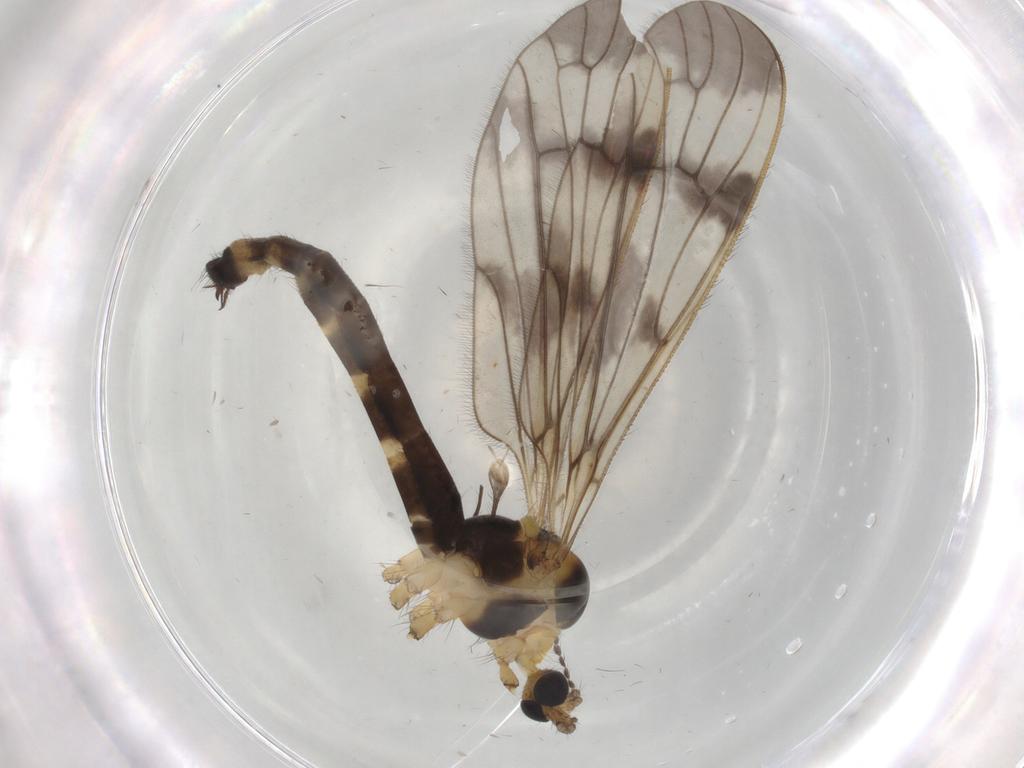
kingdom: Animalia
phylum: Arthropoda
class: Insecta
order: Diptera
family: Limoniidae
